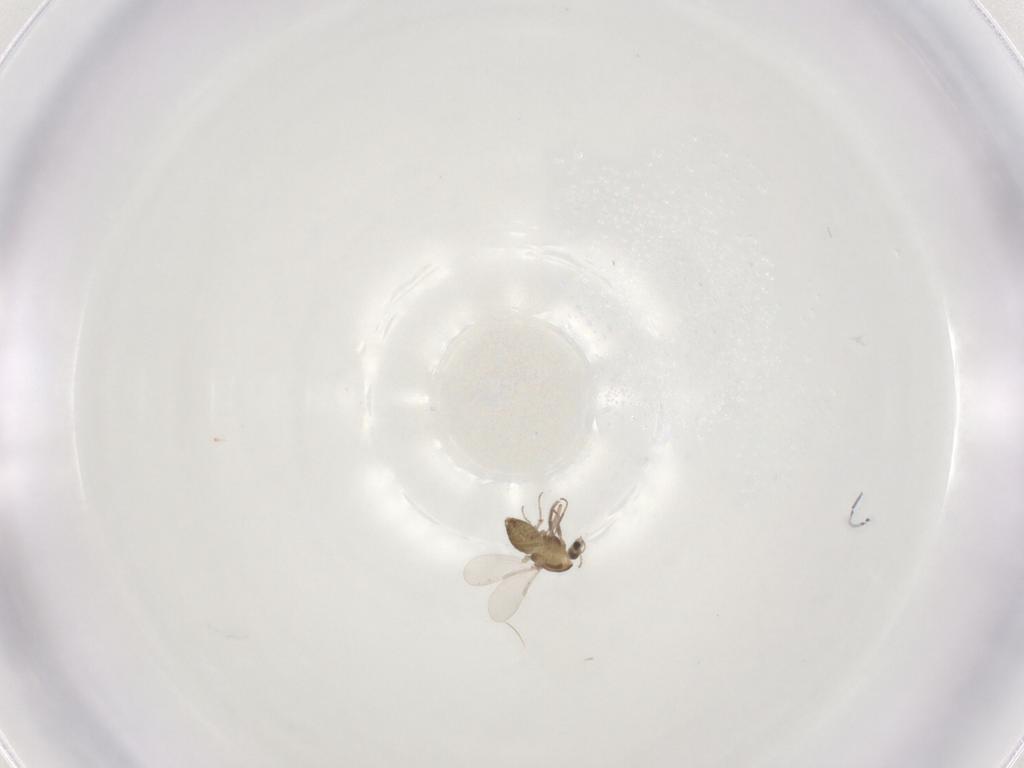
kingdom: Animalia
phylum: Arthropoda
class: Insecta
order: Diptera
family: Chironomidae
